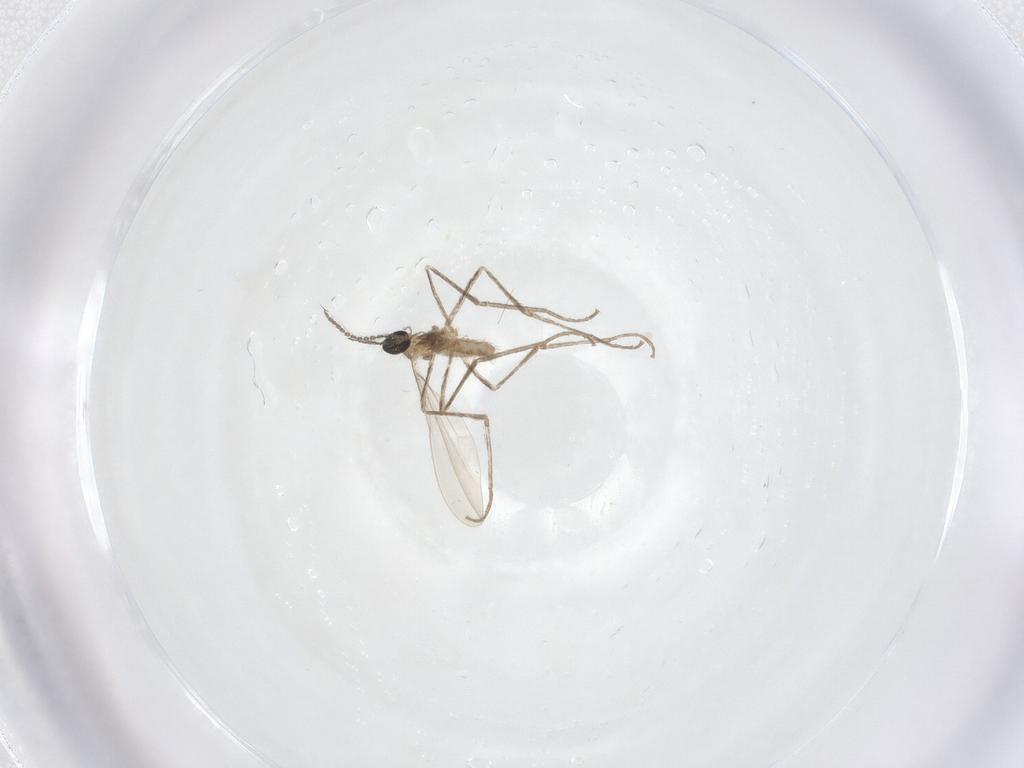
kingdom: Animalia
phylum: Arthropoda
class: Insecta
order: Diptera
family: Cecidomyiidae
